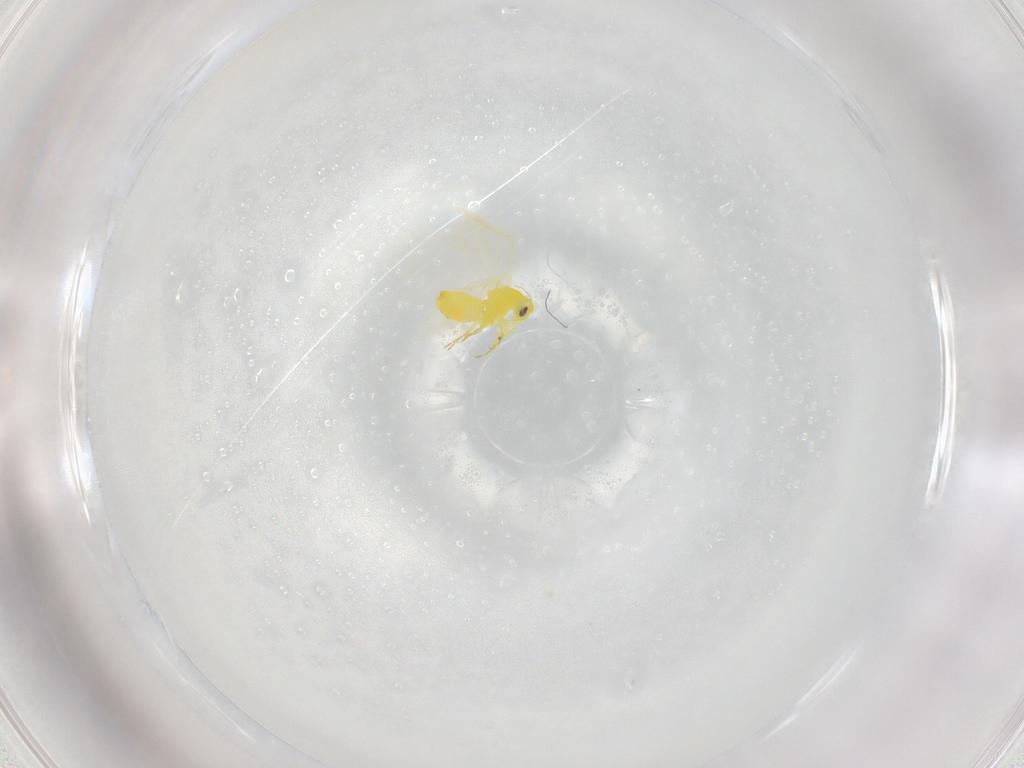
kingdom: Animalia
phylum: Arthropoda
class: Insecta
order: Hemiptera
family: Aleyrodidae
